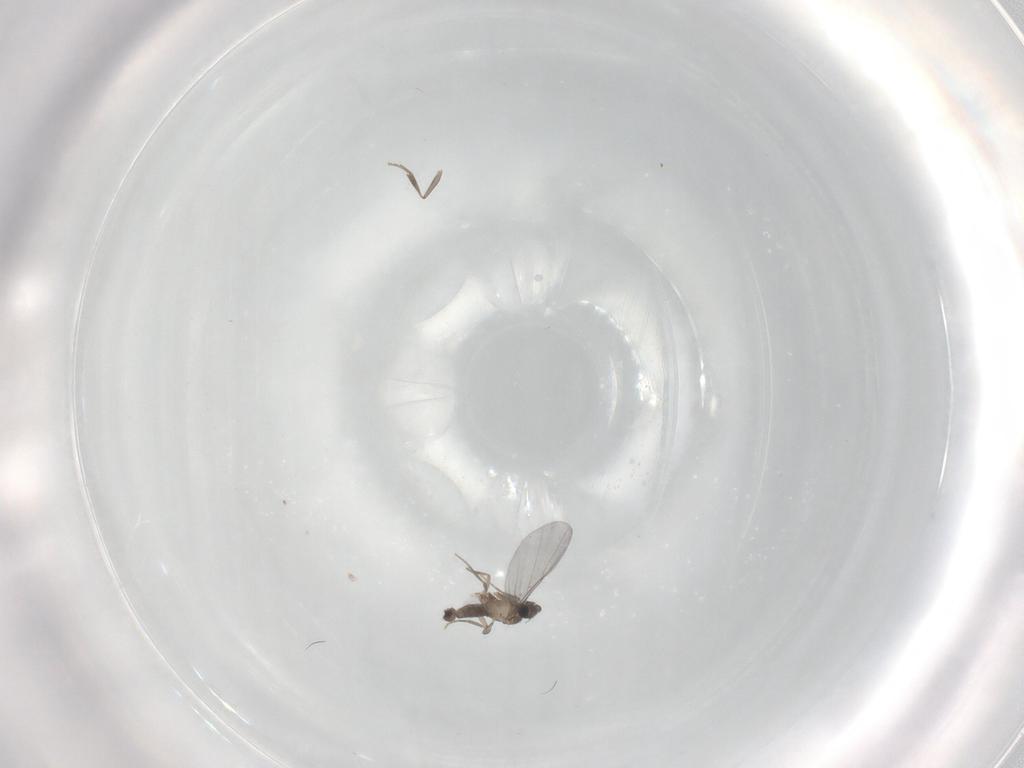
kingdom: Animalia
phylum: Arthropoda
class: Insecta
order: Diptera
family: Phoridae
